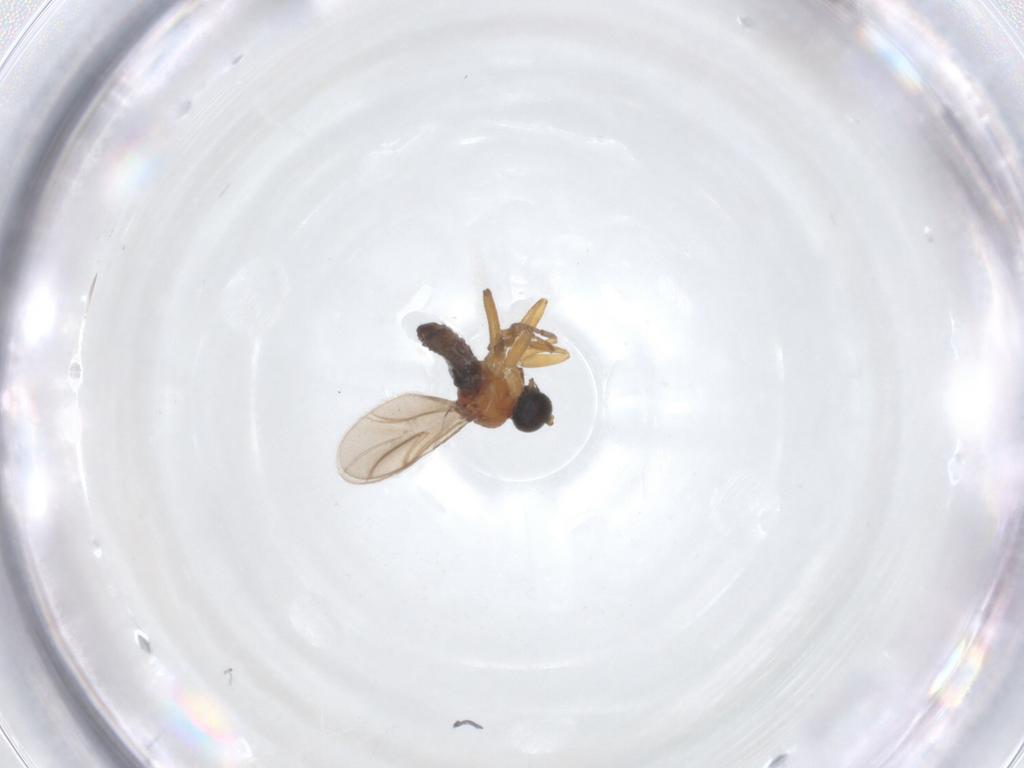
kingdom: Animalia
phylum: Arthropoda
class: Insecta
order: Diptera
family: Hybotidae
